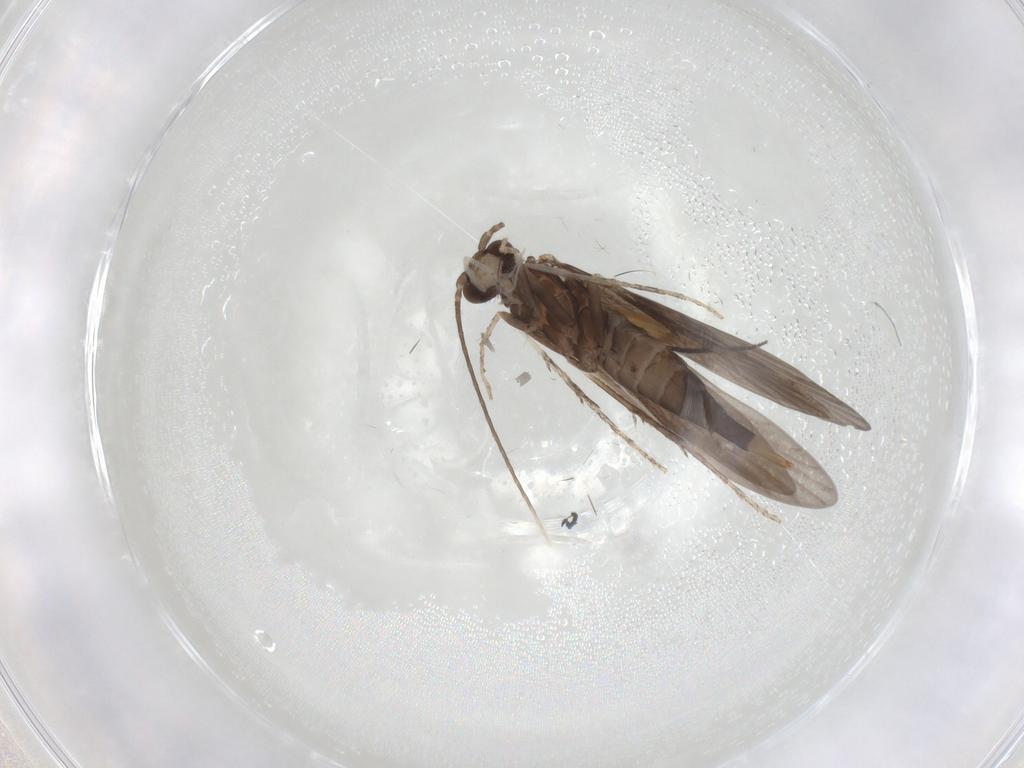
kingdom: Animalia
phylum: Arthropoda
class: Insecta
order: Trichoptera
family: Xiphocentronidae
